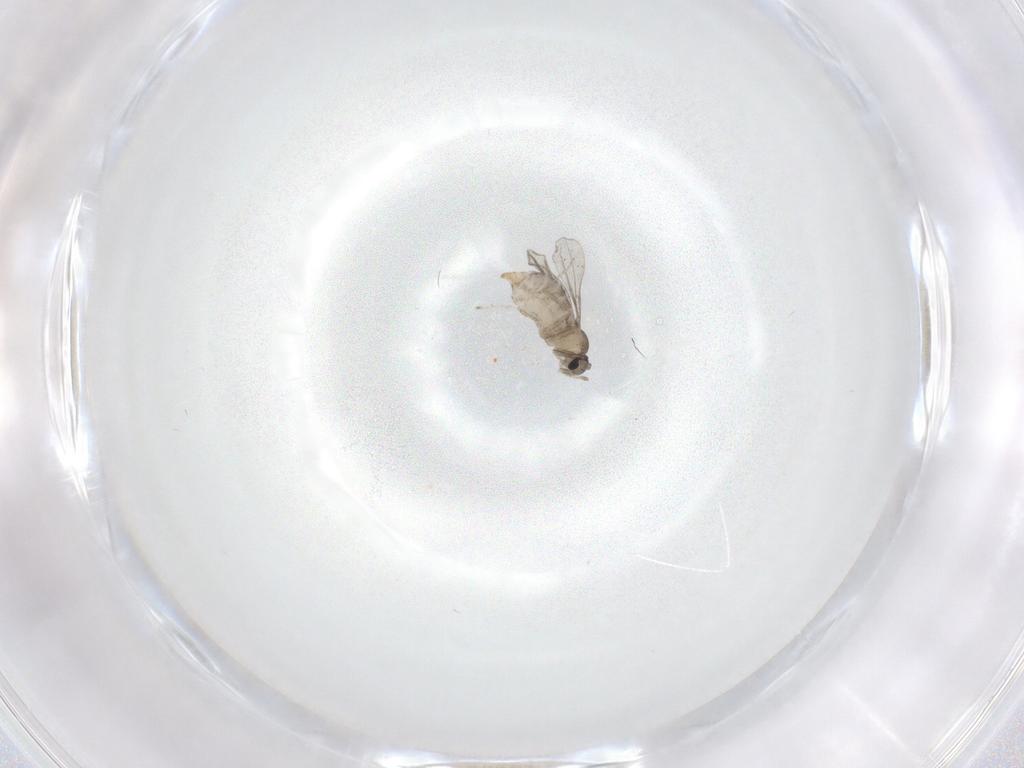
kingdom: Animalia
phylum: Arthropoda
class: Insecta
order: Diptera
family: Cecidomyiidae
